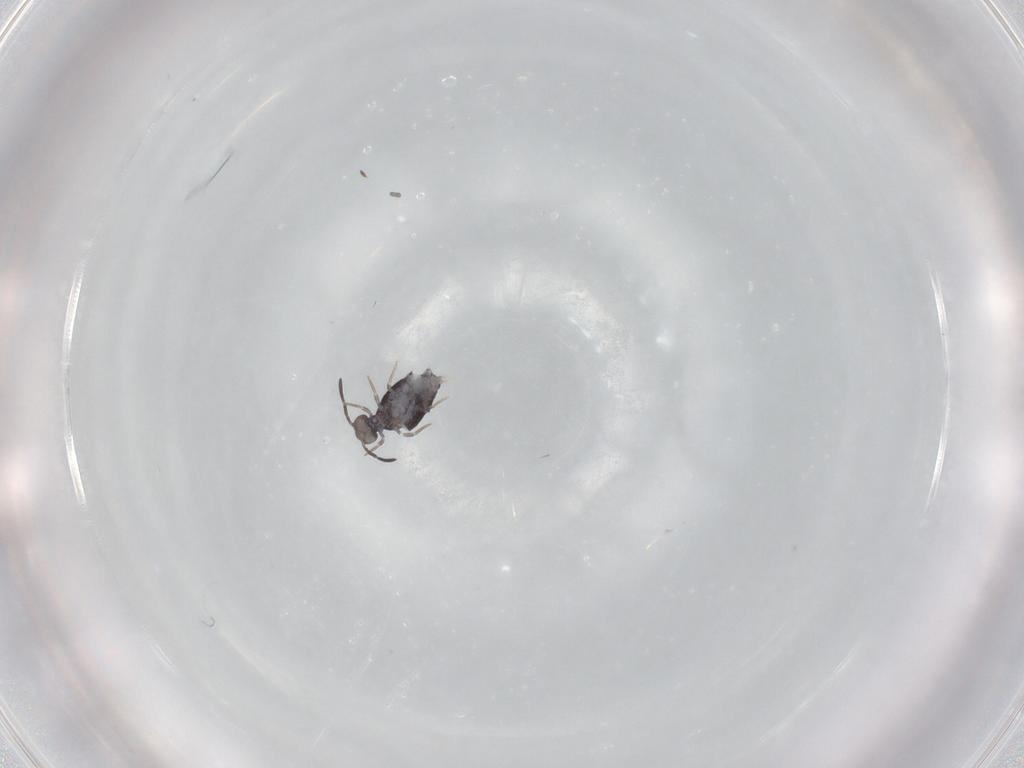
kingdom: Animalia
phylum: Arthropoda
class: Collembola
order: Symphypleona
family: Katiannidae
